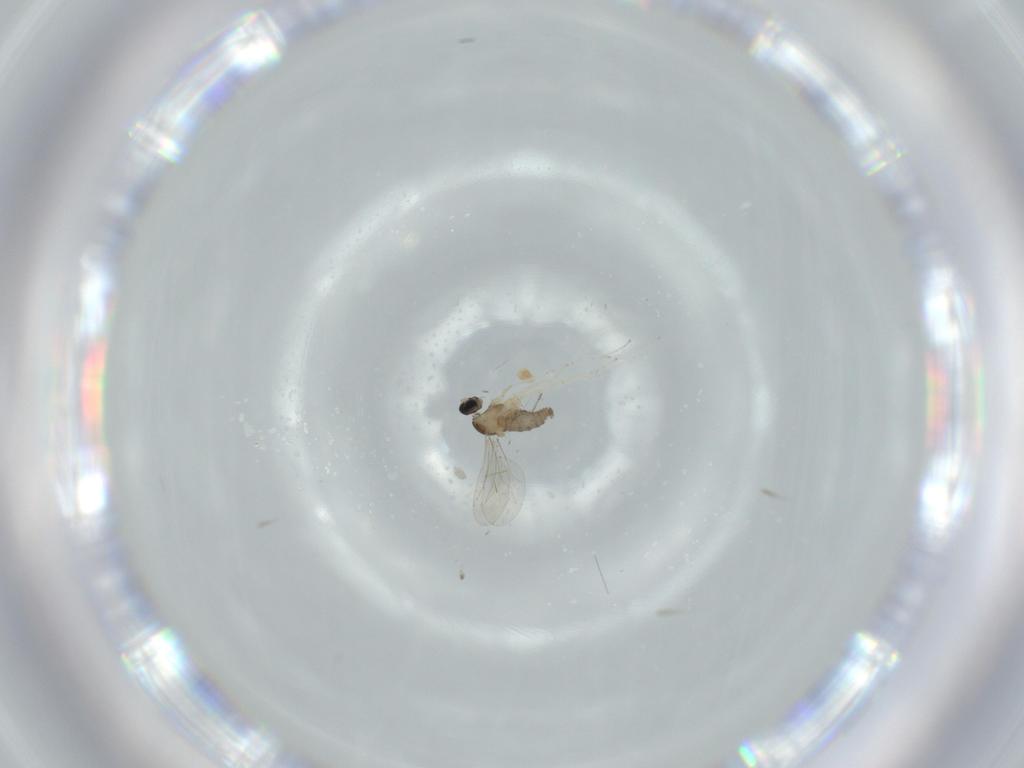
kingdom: Animalia
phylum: Arthropoda
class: Insecta
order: Diptera
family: Cecidomyiidae
